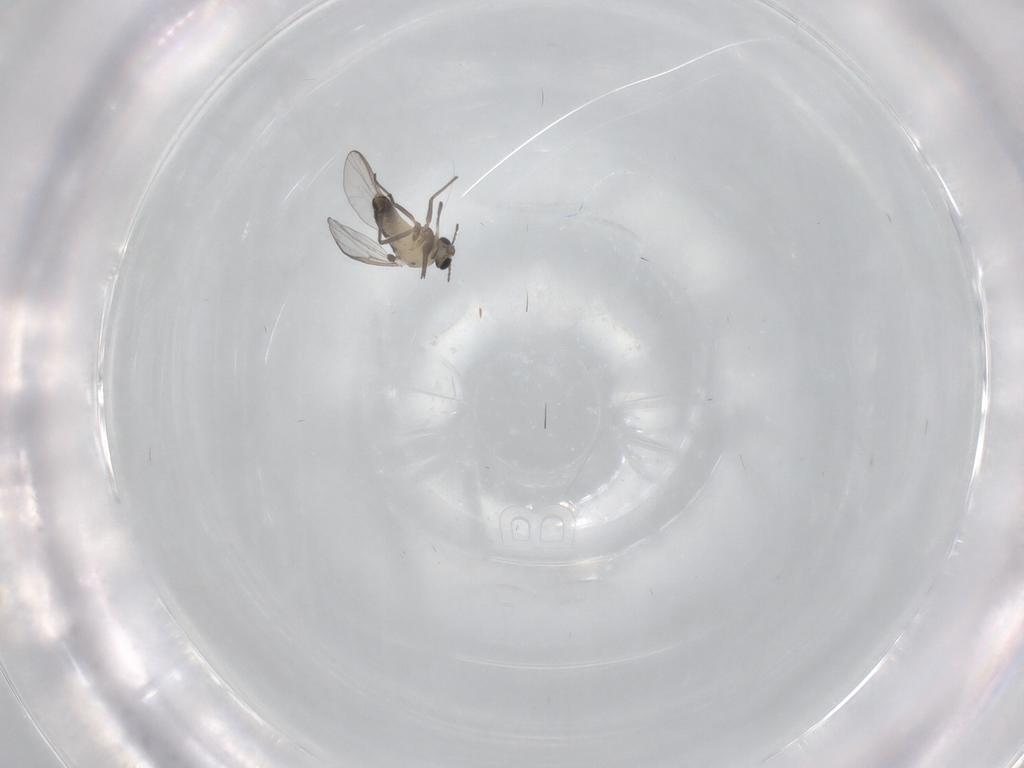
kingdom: Animalia
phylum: Arthropoda
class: Insecta
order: Diptera
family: Chironomidae
